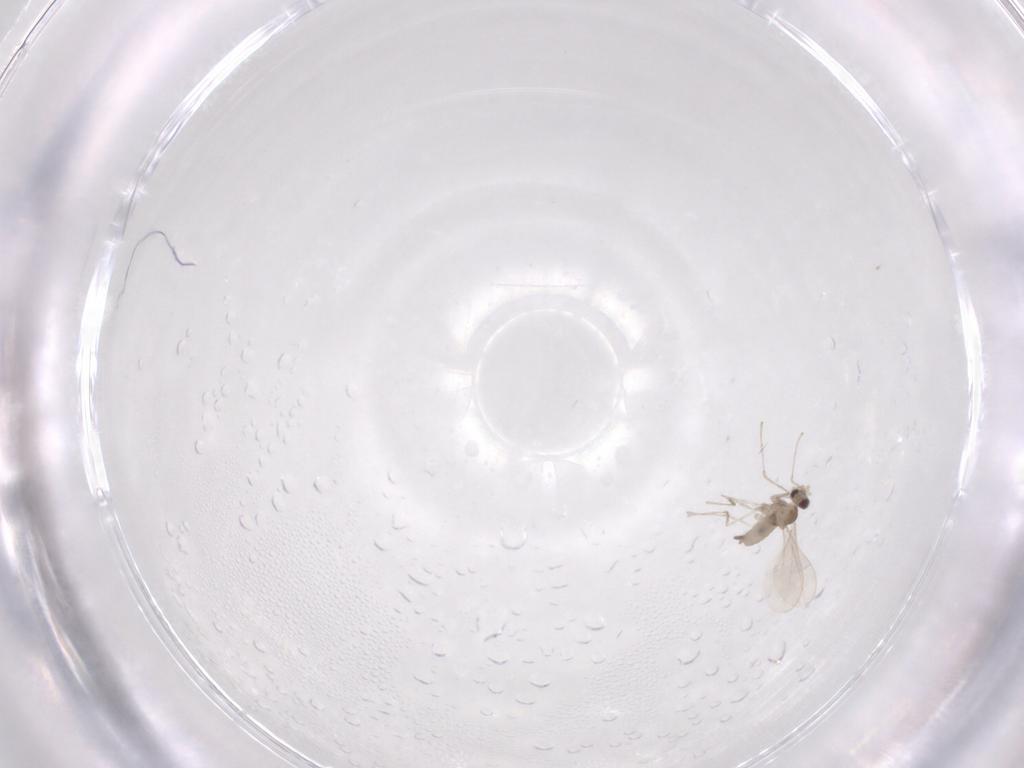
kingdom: Animalia
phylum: Arthropoda
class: Insecta
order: Diptera
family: Cecidomyiidae
